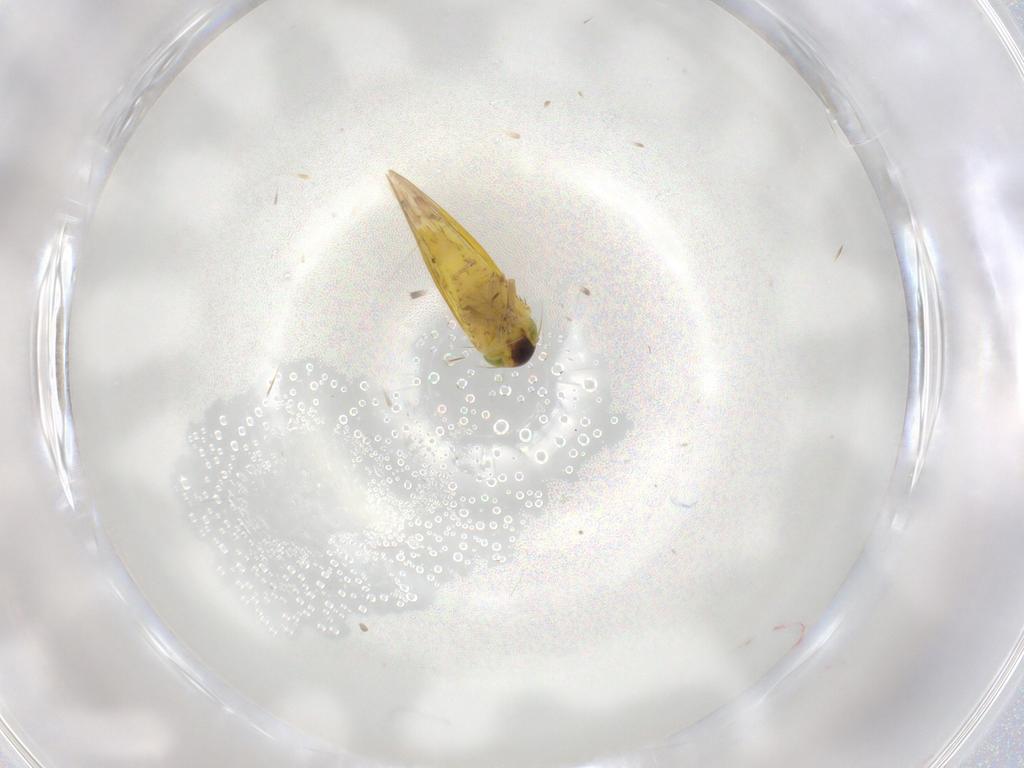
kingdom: Animalia
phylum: Arthropoda
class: Insecta
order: Hemiptera
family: Cicadellidae
